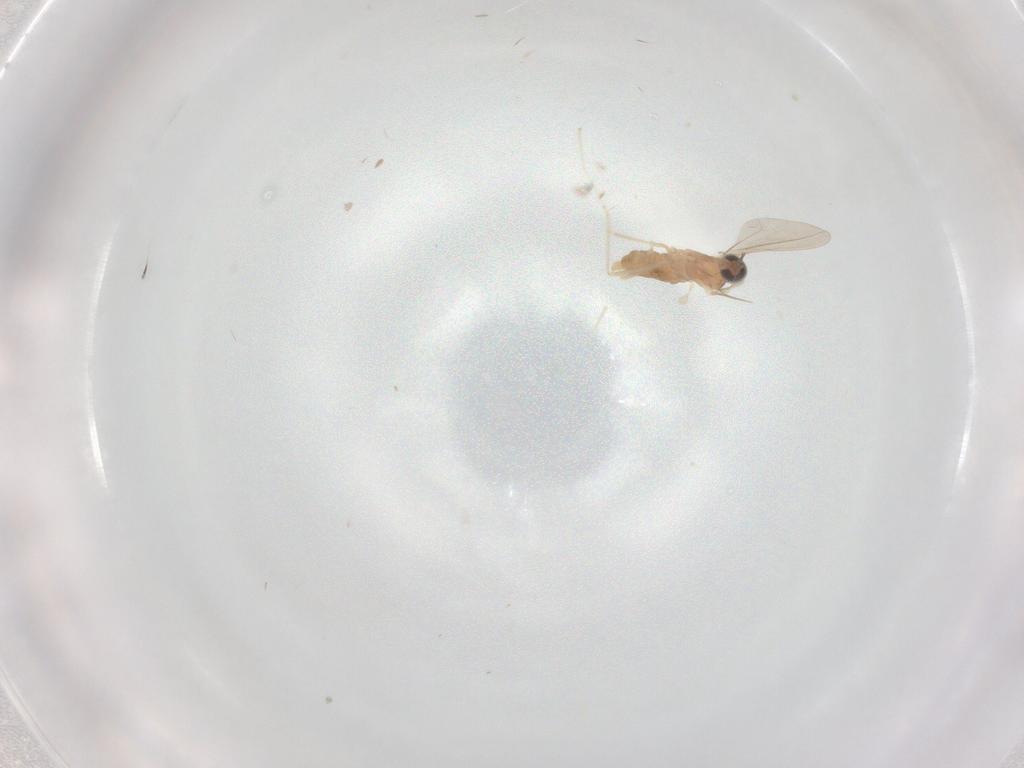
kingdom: Animalia
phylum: Arthropoda
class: Insecta
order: Diptera
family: Cecidomyiidae
